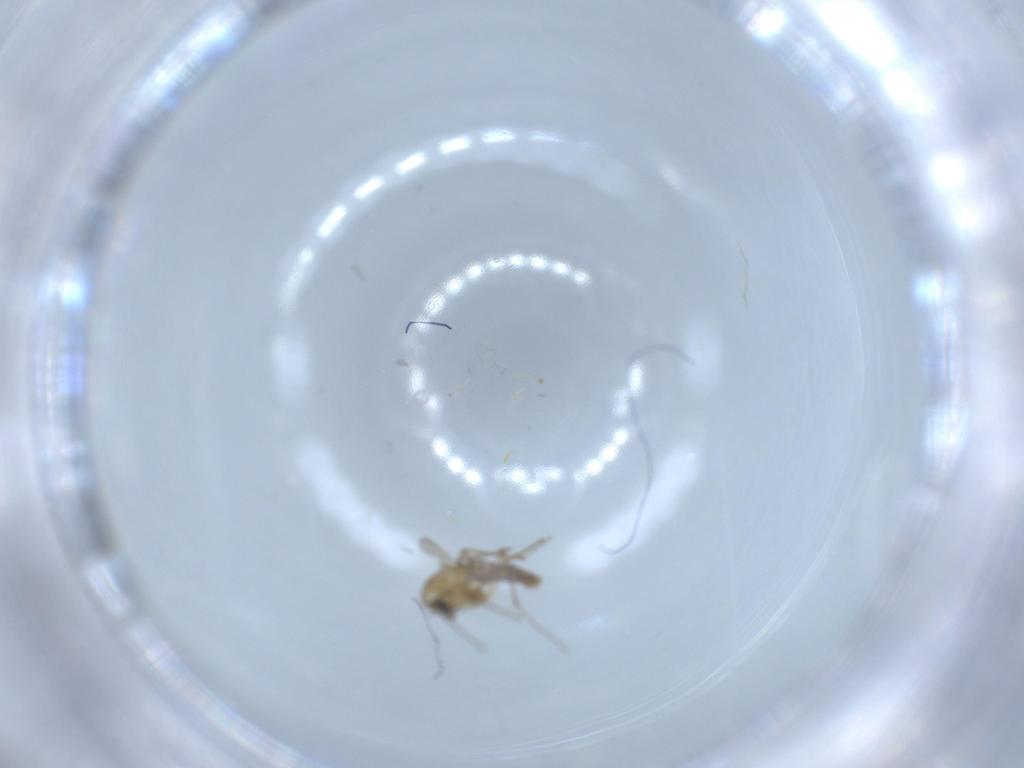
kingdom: Animalia
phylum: Arthropoda
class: Insecta
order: Diptera
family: Chironomidae
